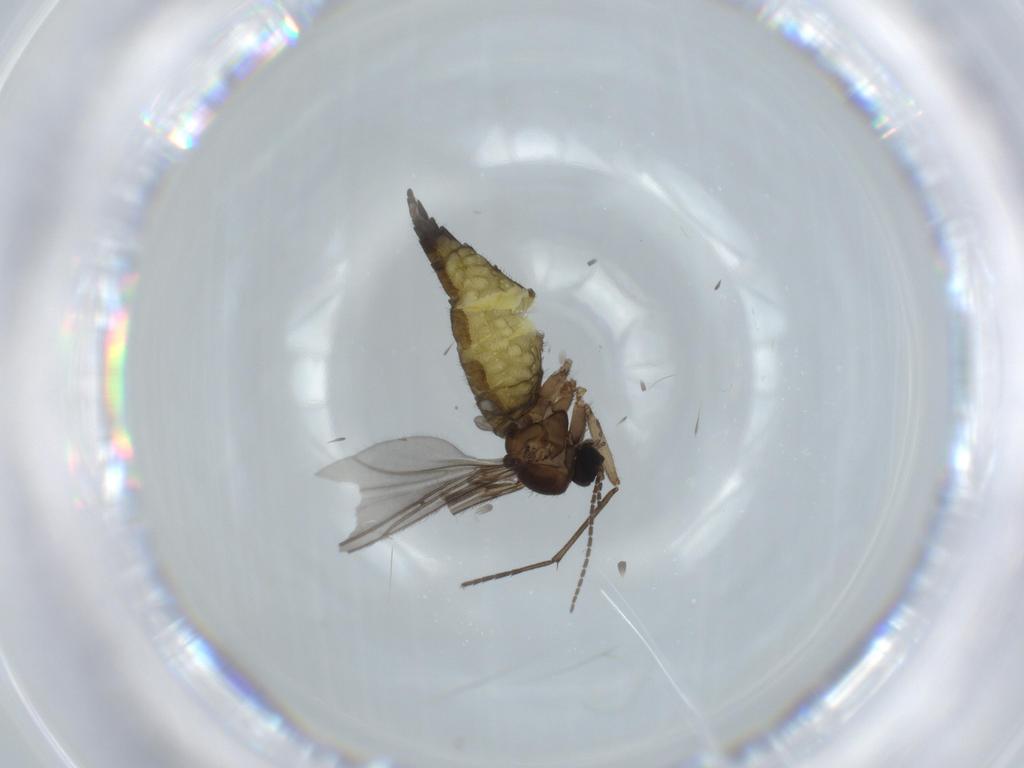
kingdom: Animalia
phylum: Arthropoda
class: Insecta
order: Diptera
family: Sciaridae
